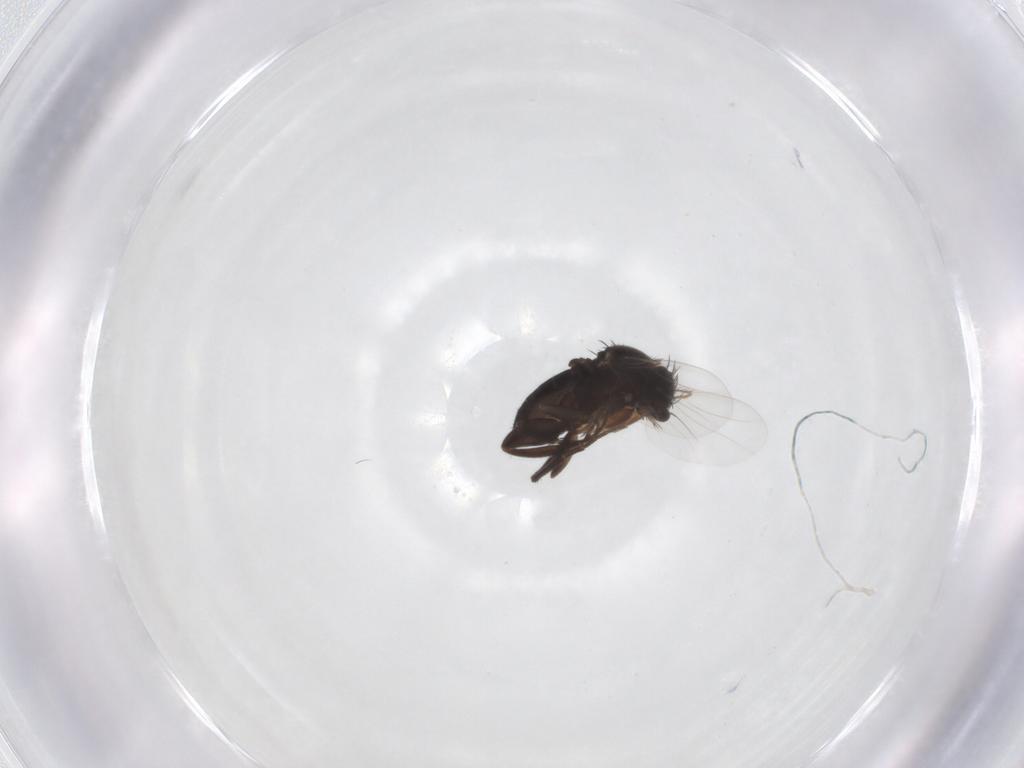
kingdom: Animalia
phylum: Arthropoda
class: Insecta
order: Diptera
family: Phoridae
